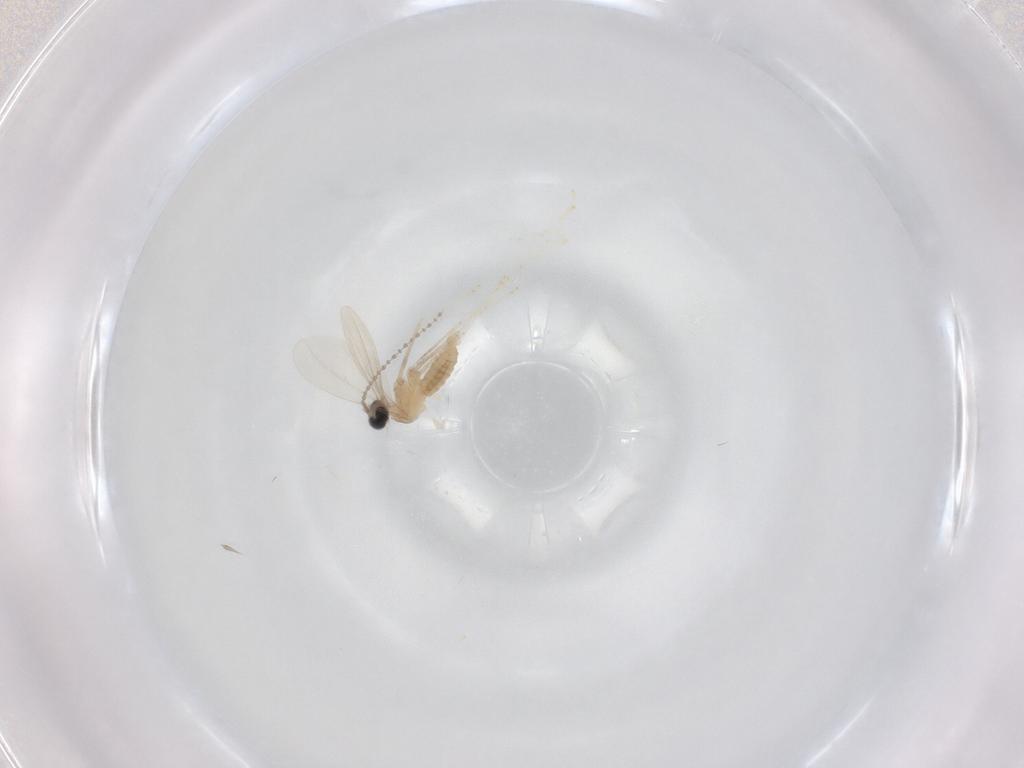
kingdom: Animalia
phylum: Arthropoda
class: Insecta
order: Diptera
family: Cecidomyiidae
